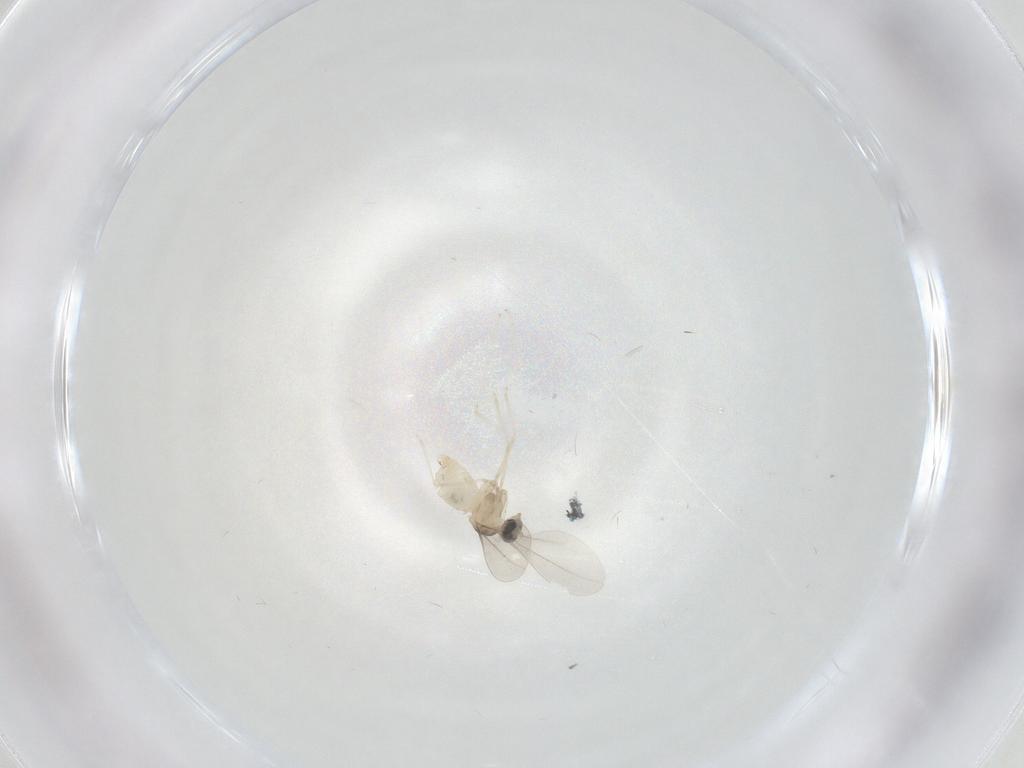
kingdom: Animalia
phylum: Arthropoda
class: Insecta
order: Diptera
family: Cecidomyiidae
